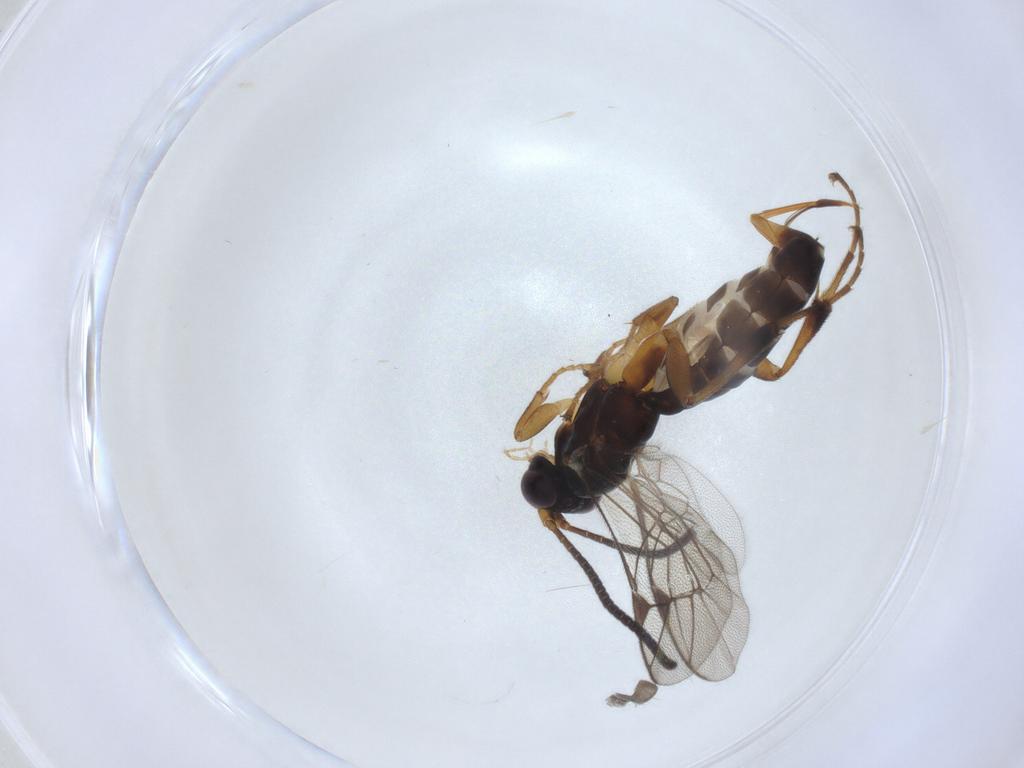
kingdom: Animalia
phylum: Arthropoda
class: Insecta
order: Hymenoptera
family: Ichneumonidae
